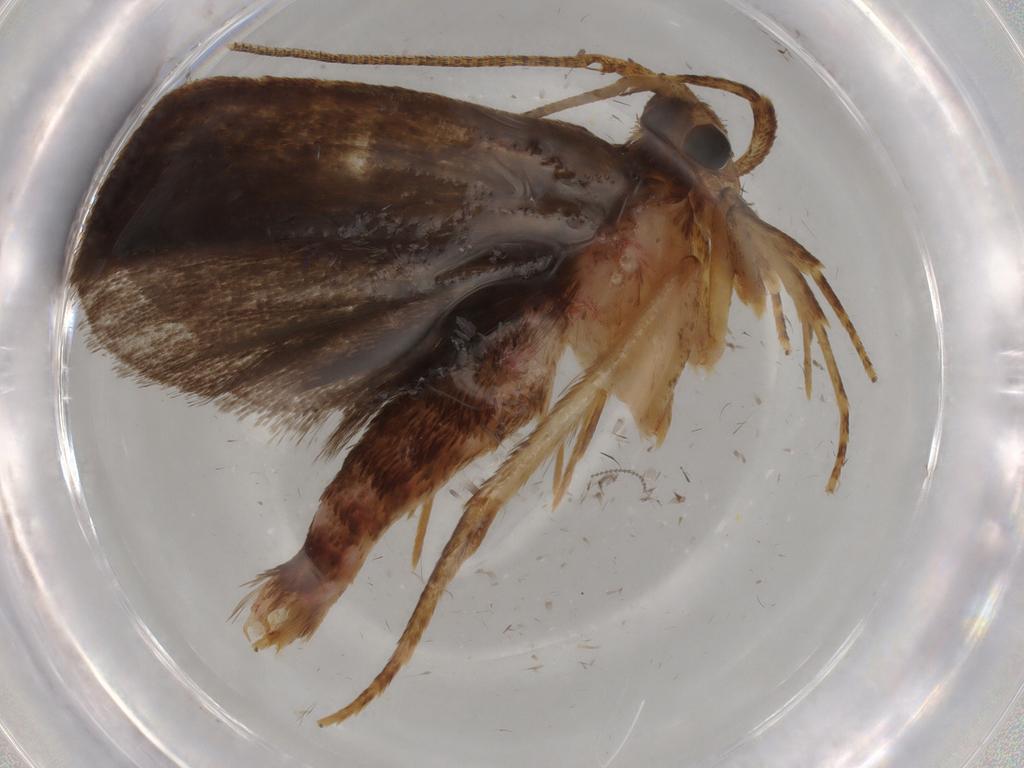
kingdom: Animalia
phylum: Arthropoda
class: Insecta
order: Lepidoptera
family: Autostichidae
